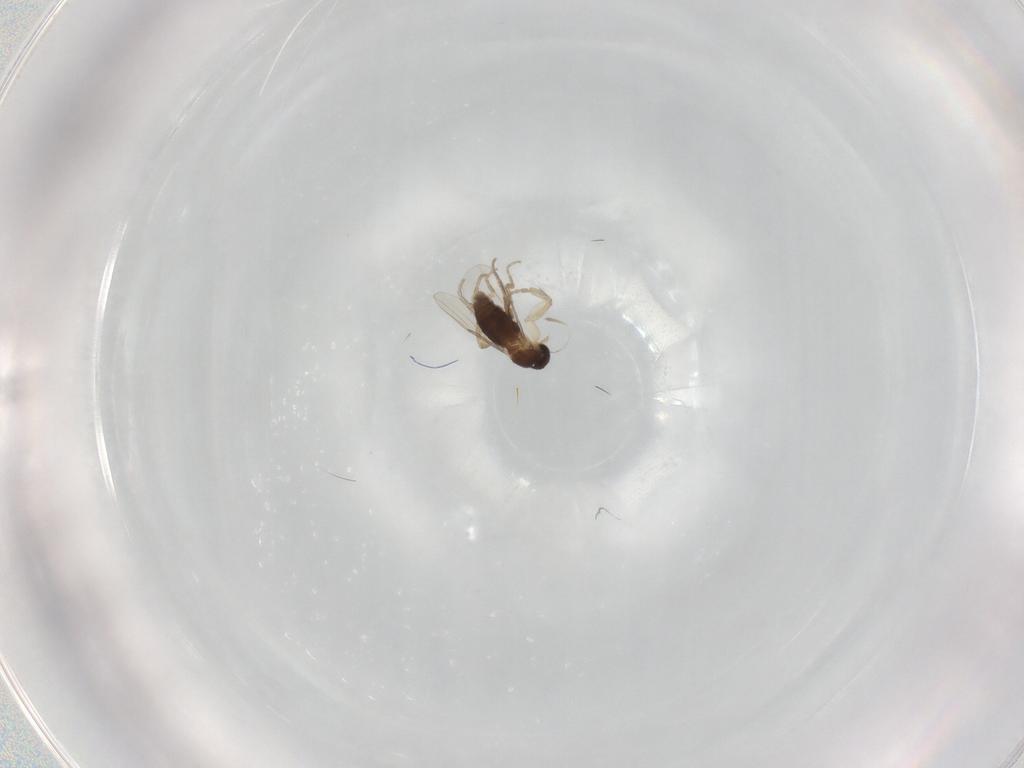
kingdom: Animalia
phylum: Arthropoda
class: Insecta
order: Diptera
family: Phoridae
